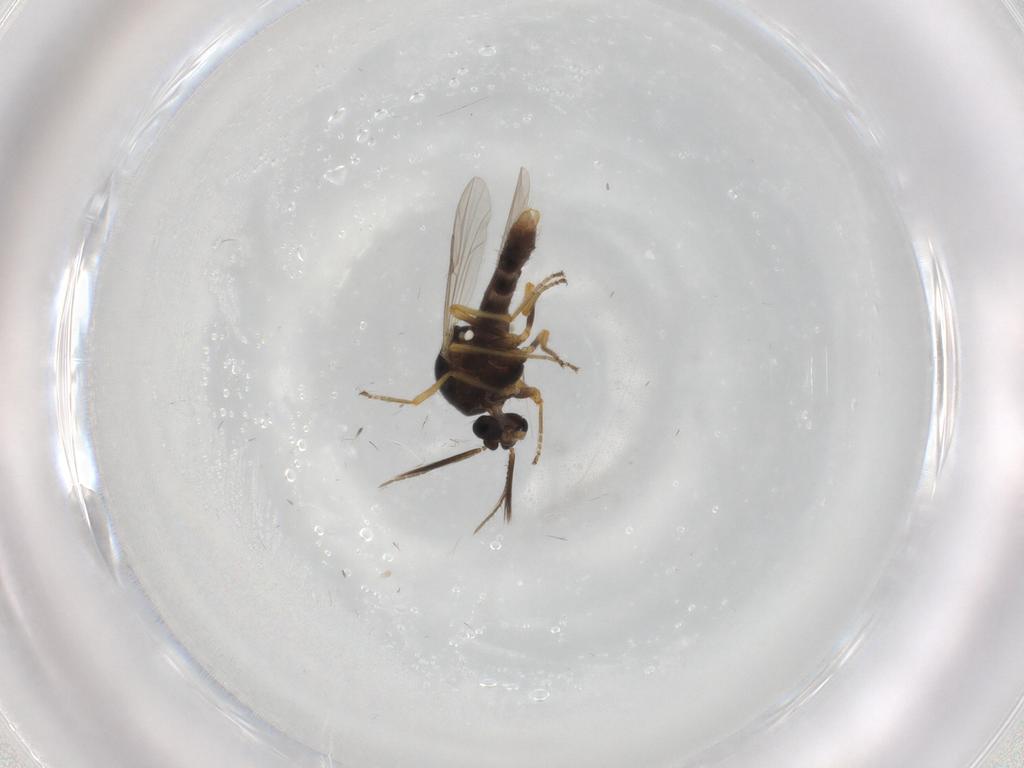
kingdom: Animalia
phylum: Arthropoda
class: Insecta
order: Diptera
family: Ceratopogonidae
